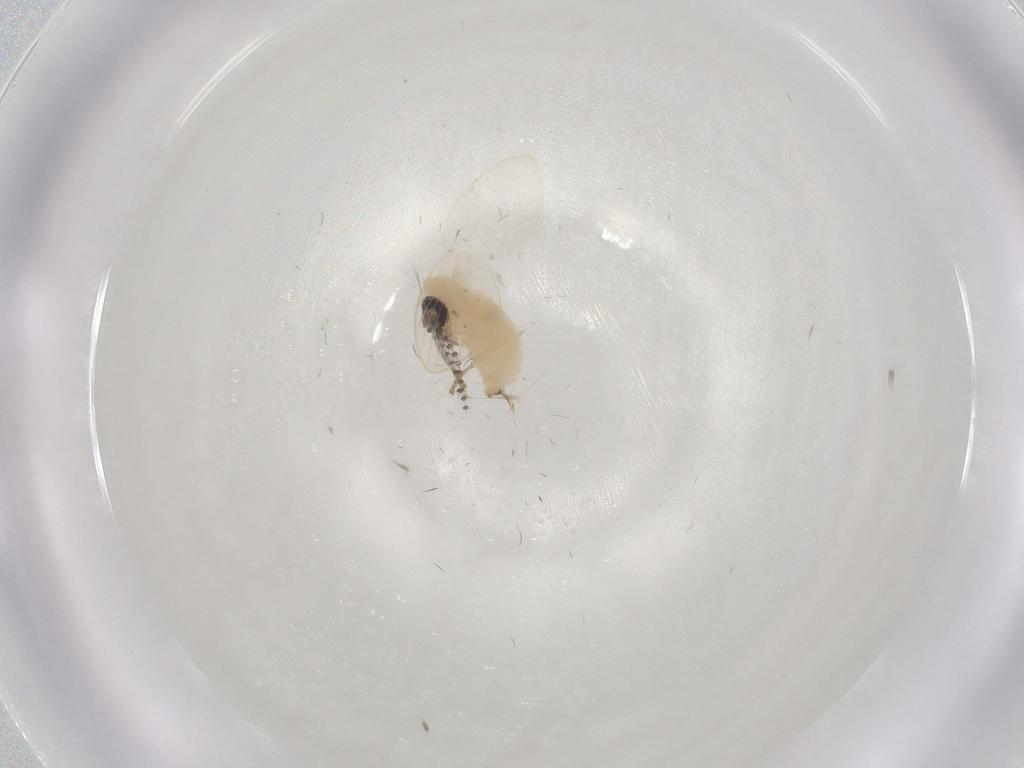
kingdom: Animalia
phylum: Arthropoda
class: Insecta
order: Diptera
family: Psychodidae
